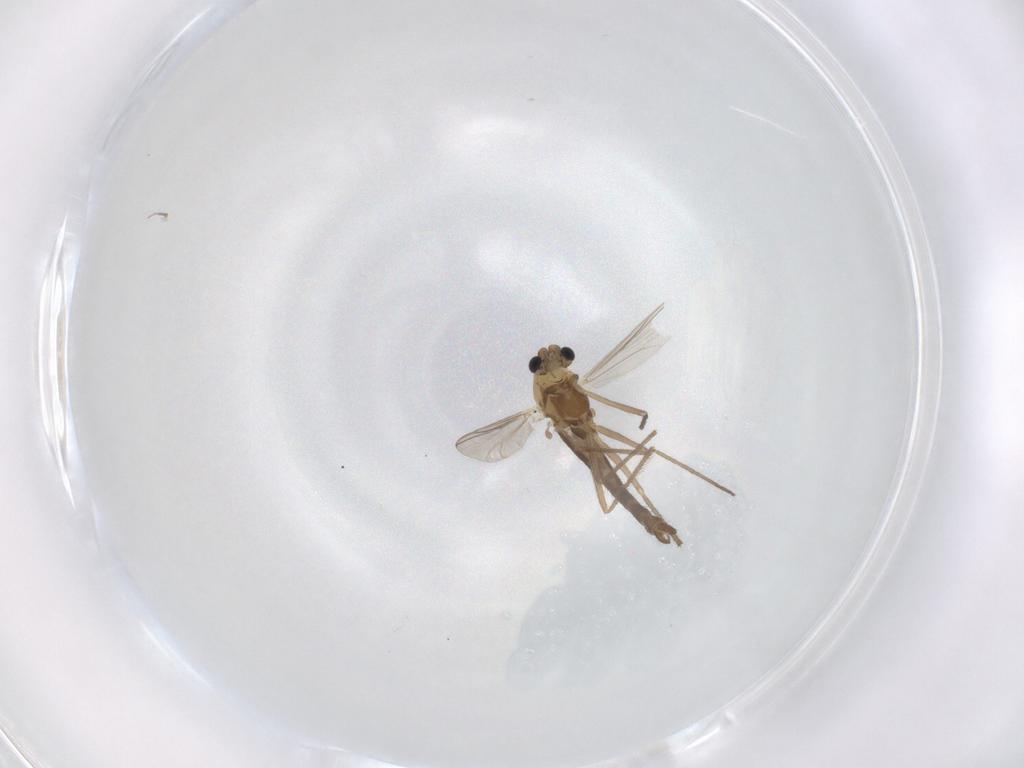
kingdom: Animalia
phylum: Arthropoda
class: Insecta
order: Diptera
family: Chironomidae
